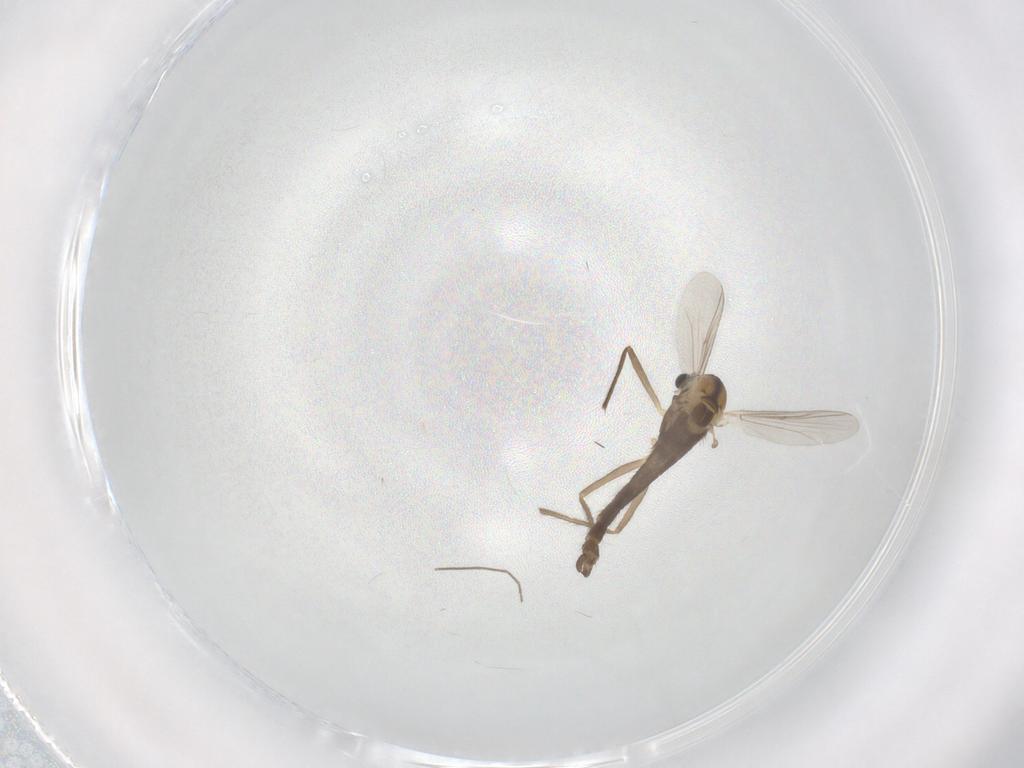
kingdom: Animalia
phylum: Arthropoda
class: Insecta
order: Diptera
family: Chironomidae
